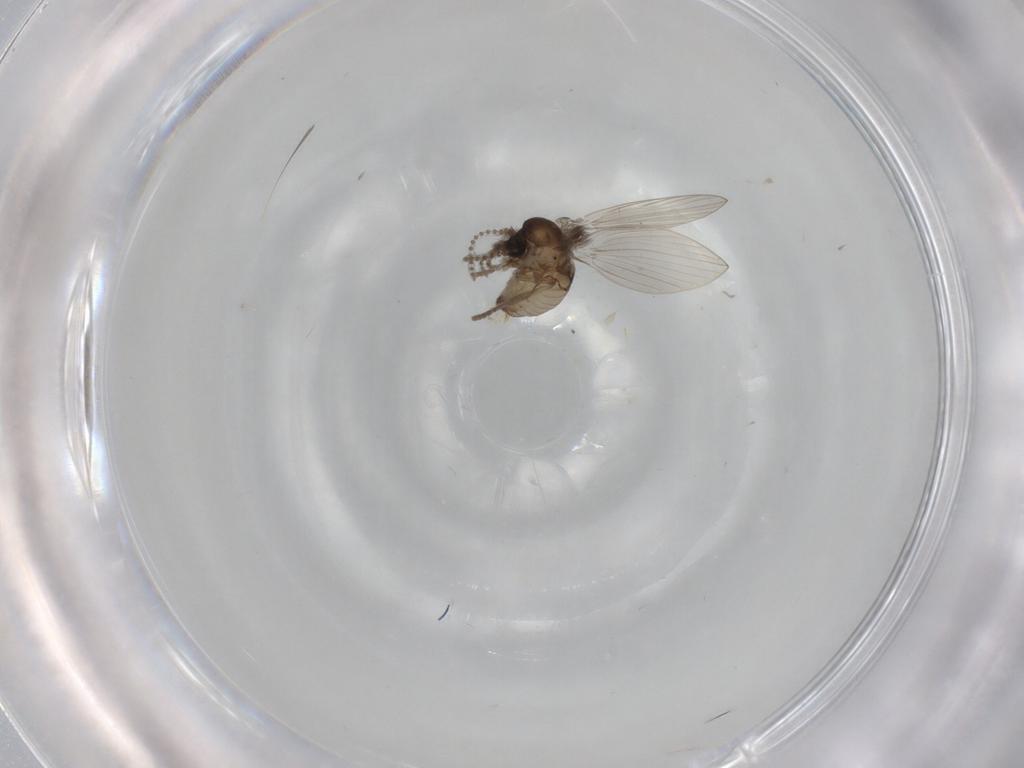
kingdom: Animalia
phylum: Arthropoda
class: Insecta
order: Diptera
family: Psychodidae
